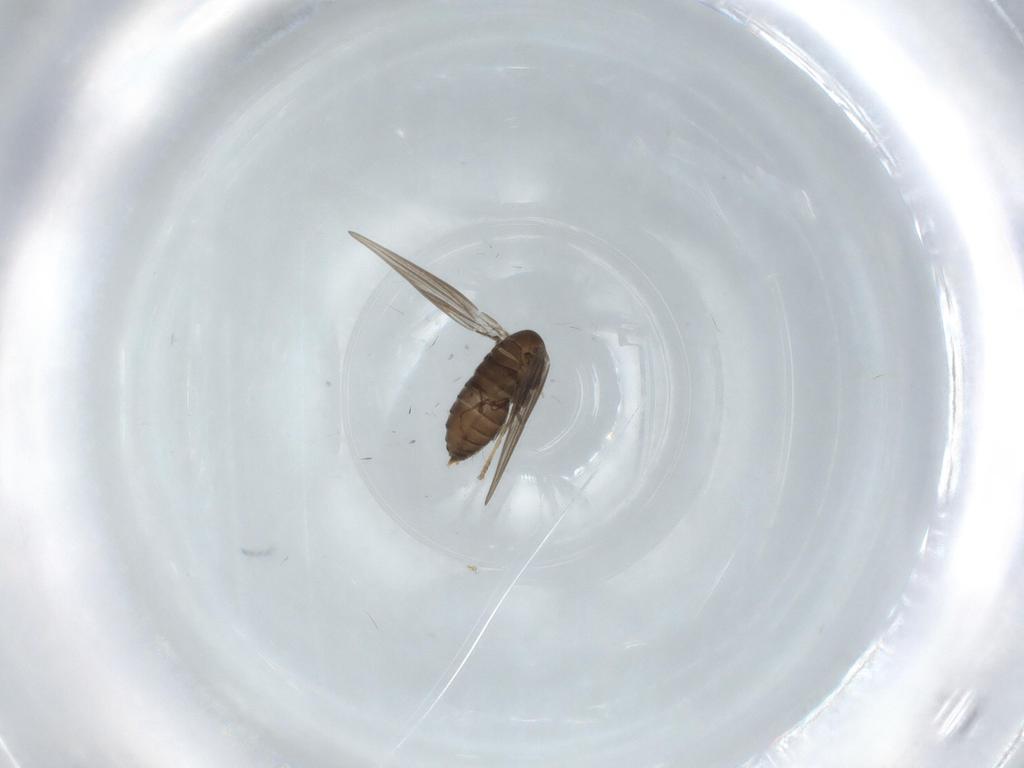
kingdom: Animalia
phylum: Arthropoda
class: Insecta
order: Diptera
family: Psychodidae
